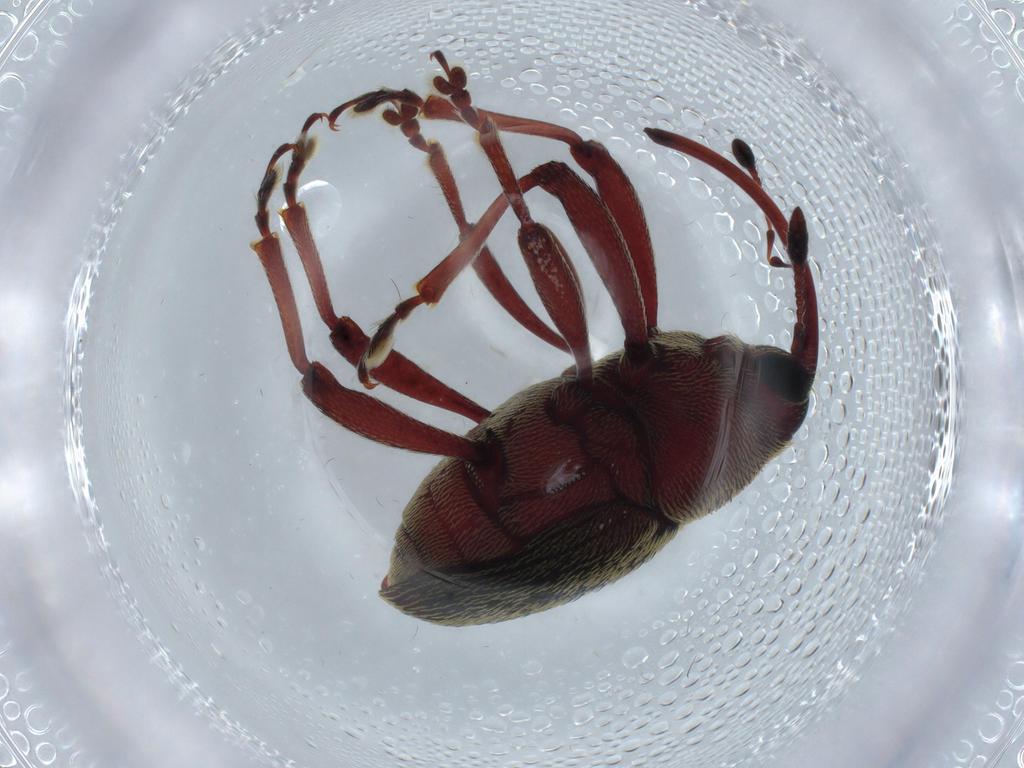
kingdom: Animalia
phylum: Arthropoda
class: Insecta
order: Coleoptera
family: Curculionidae
